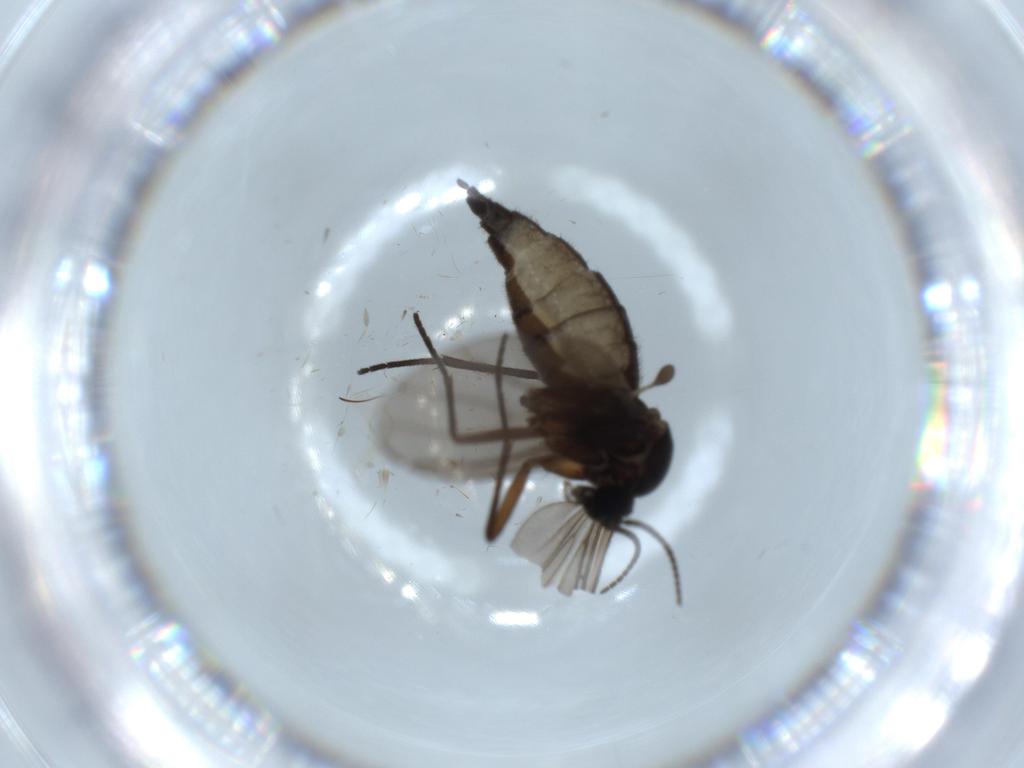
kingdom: Animalia
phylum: Arthropoda
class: Insecta
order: Diptera
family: Sciaridae
